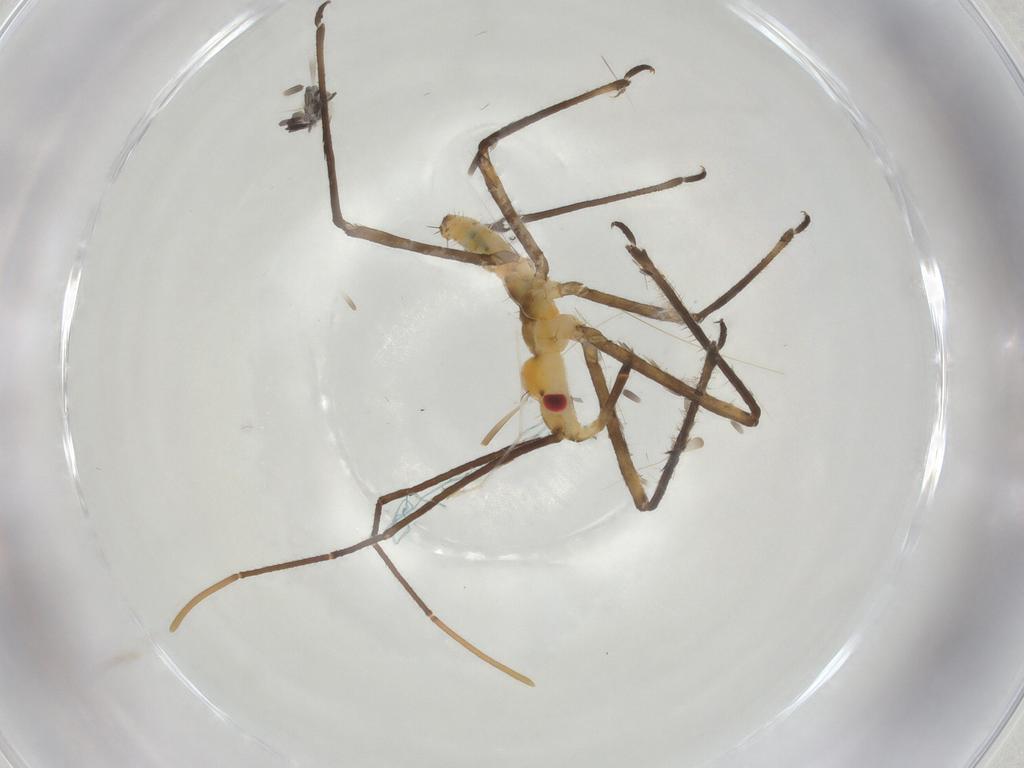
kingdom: Animalia
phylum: Arthropoda
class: Insecta
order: Hemiptera
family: Reduviidae
